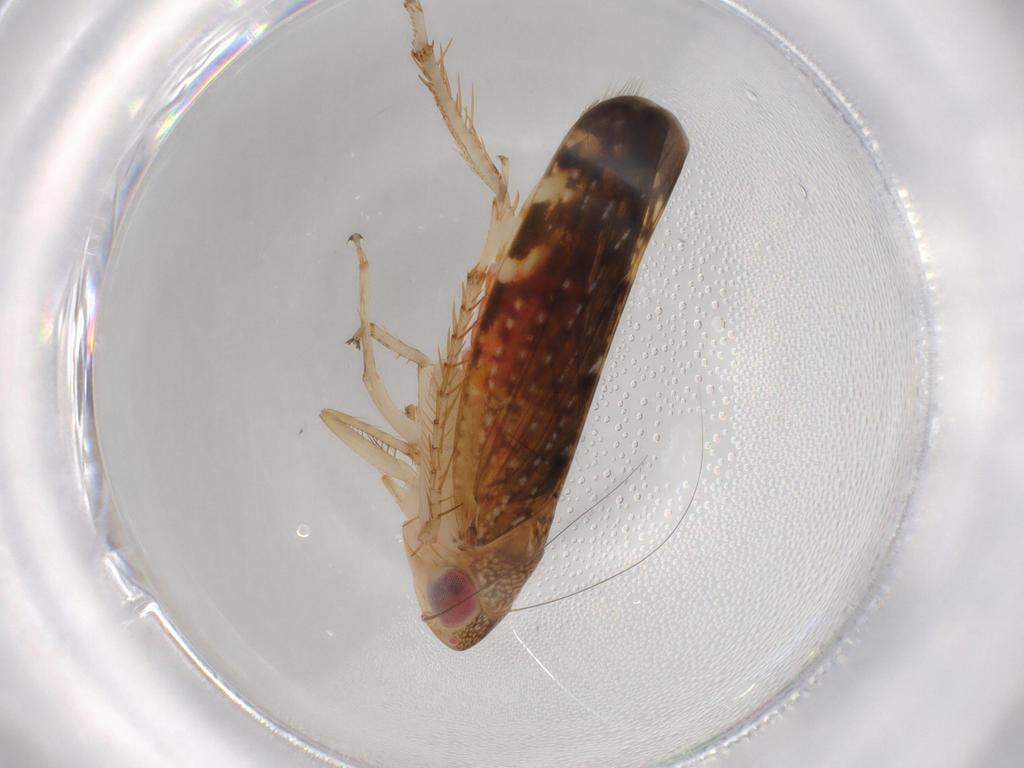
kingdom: Animalia
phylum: Arthropoda
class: Insecta
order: Hemiptera
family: Cicadellidae
